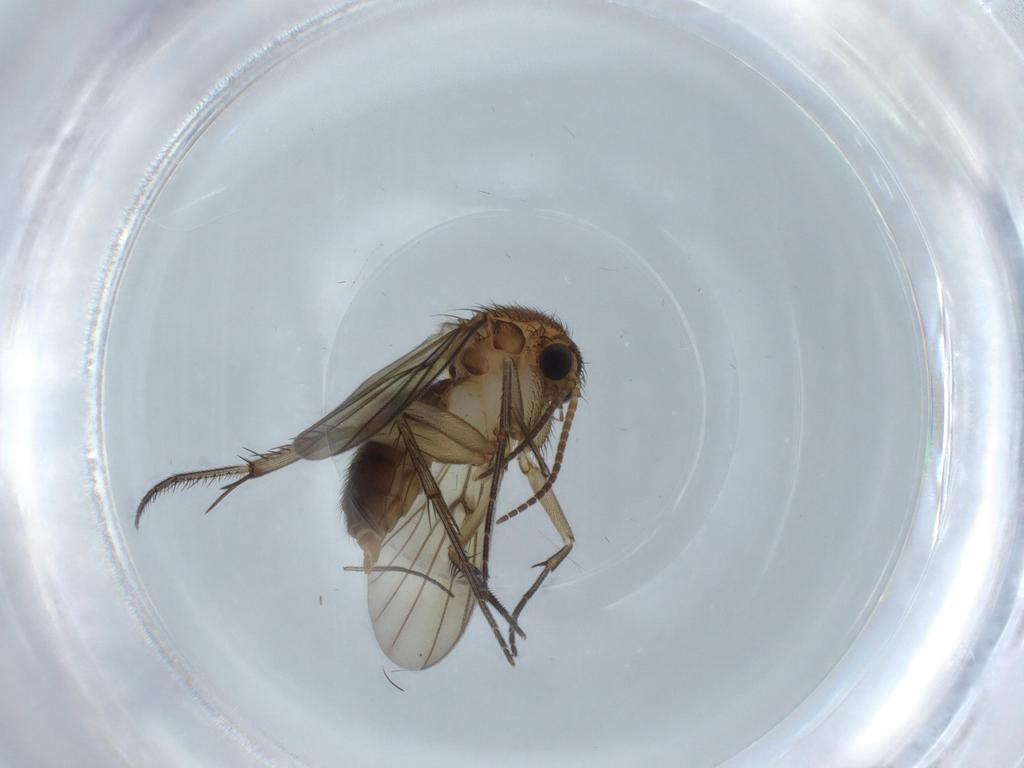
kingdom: Animalia
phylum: Arthropoda
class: Insecta
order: Diptera
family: Mycetophilidae
